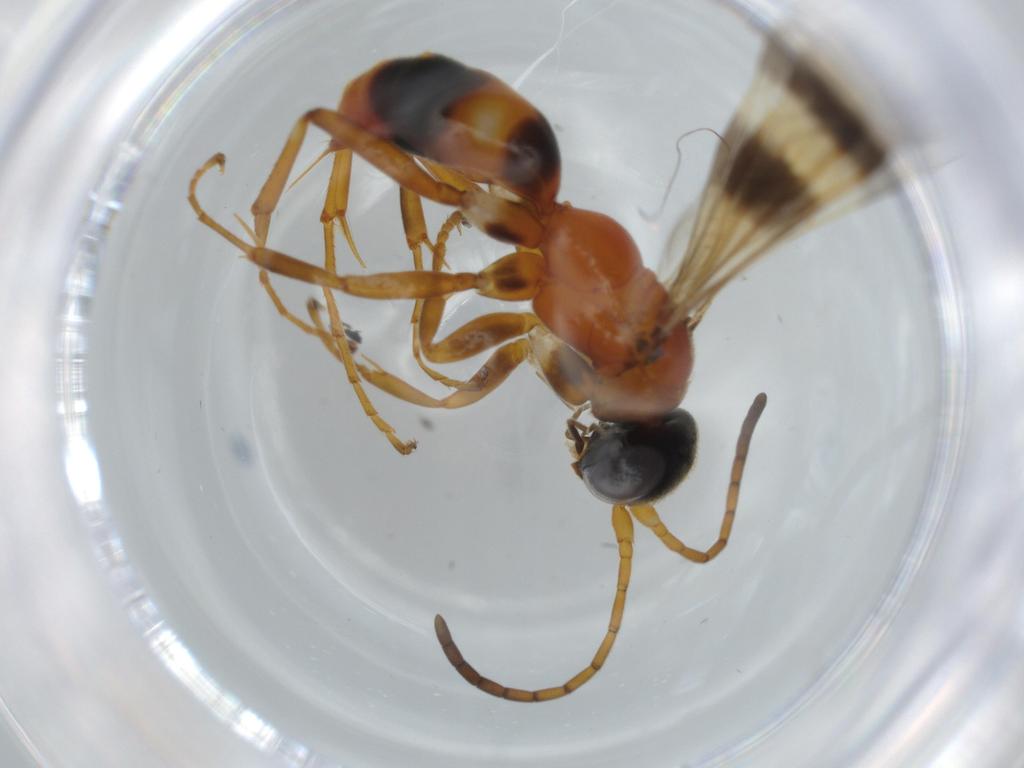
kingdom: Animalia
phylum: Arthropoda
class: Insecta
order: Hymenoptera
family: Pompilidae
